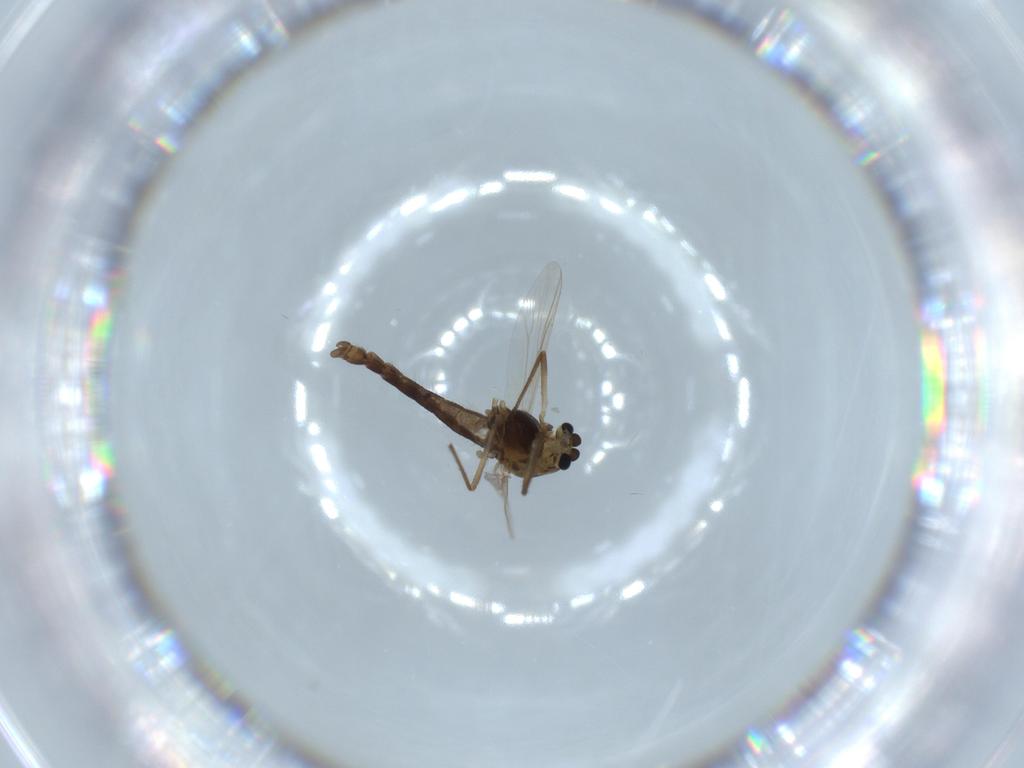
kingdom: Animalia
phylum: Arthropoda
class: Insecta
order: Diptera
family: Chironomidae
